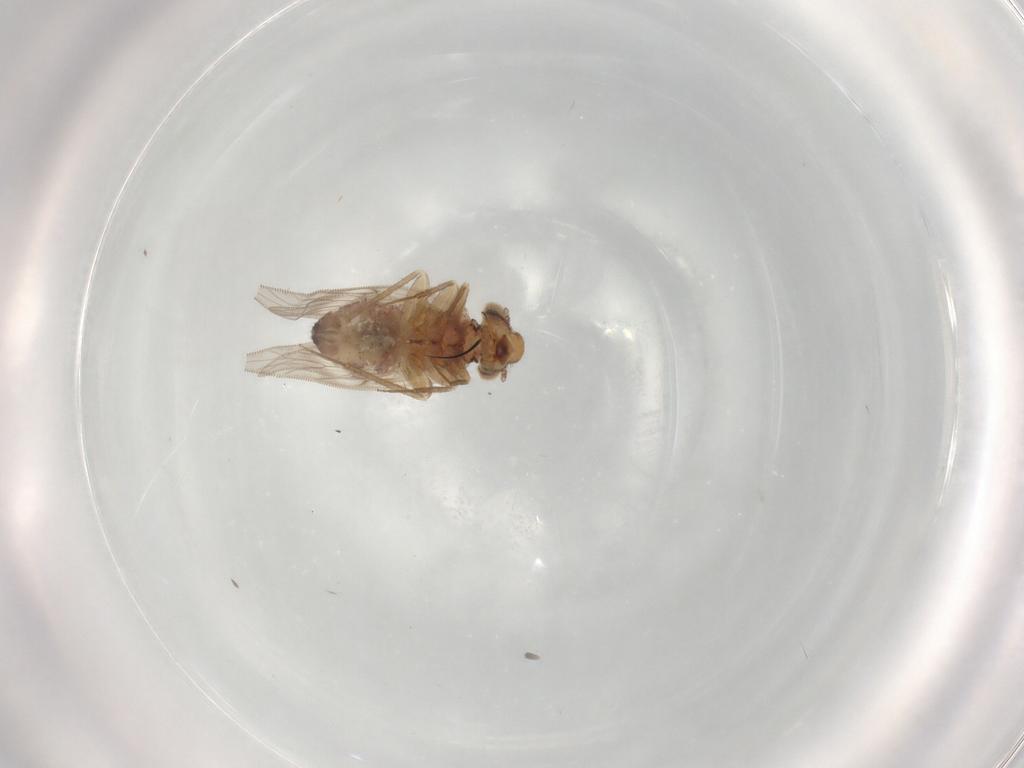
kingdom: Animalia
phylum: Arthropoda
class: Insecta
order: Psocodea
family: Lepidopsocidae
